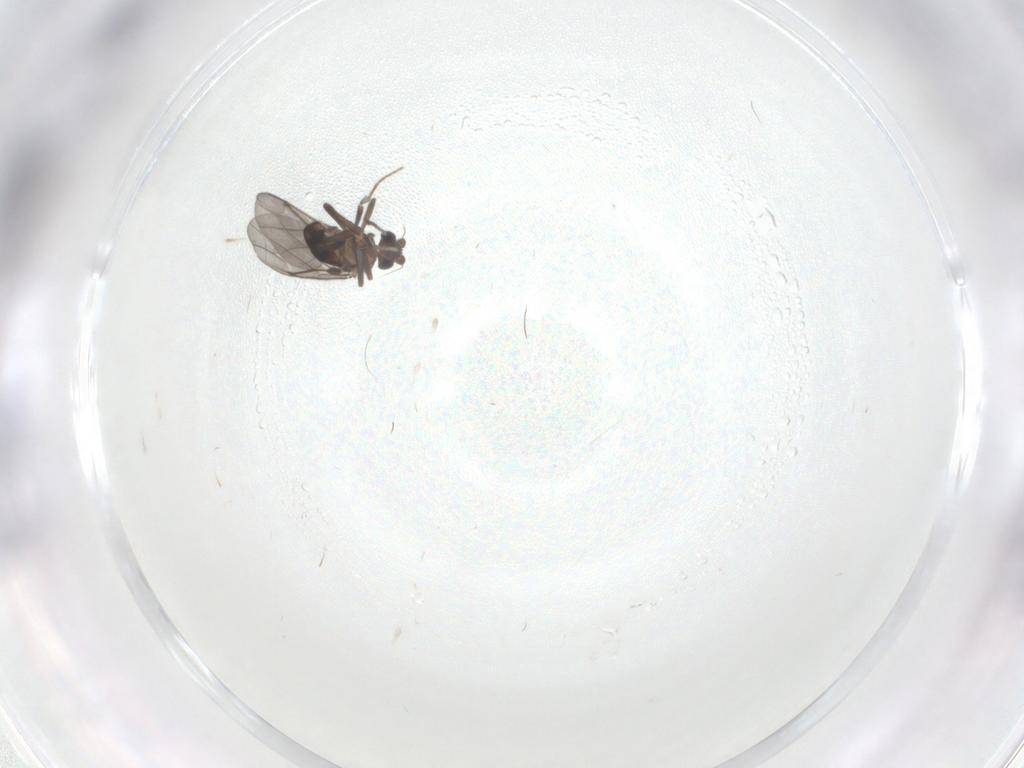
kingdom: Animalia
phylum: Arthropoda
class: Insecta
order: Diptera
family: Phoridae
